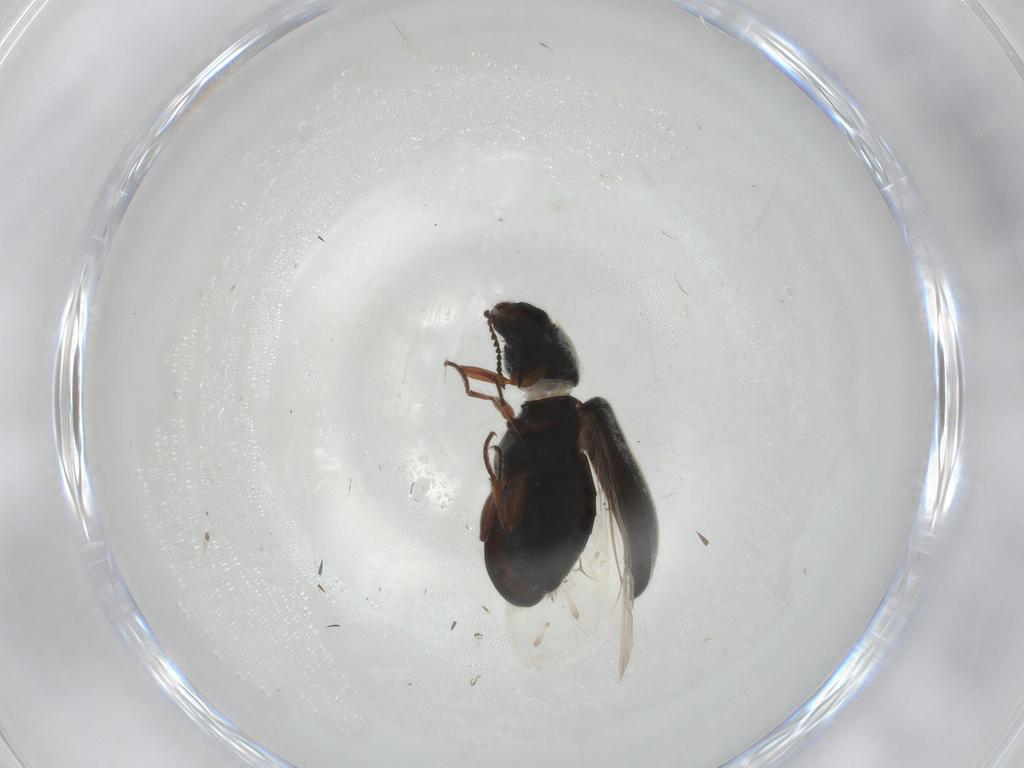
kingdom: Animalia
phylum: Arthropoda
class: Insecta
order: Coleoptera
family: Melyridae
